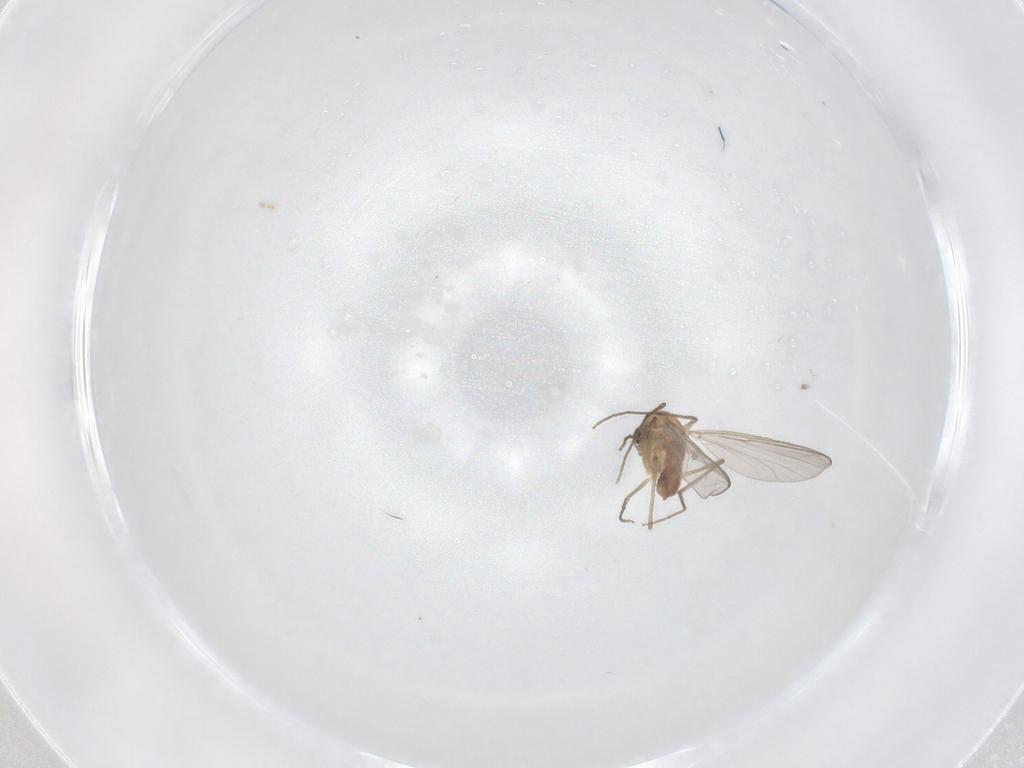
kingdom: Animalia
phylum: Arthropoda
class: Insecta
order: Diptera
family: Chironomidae
